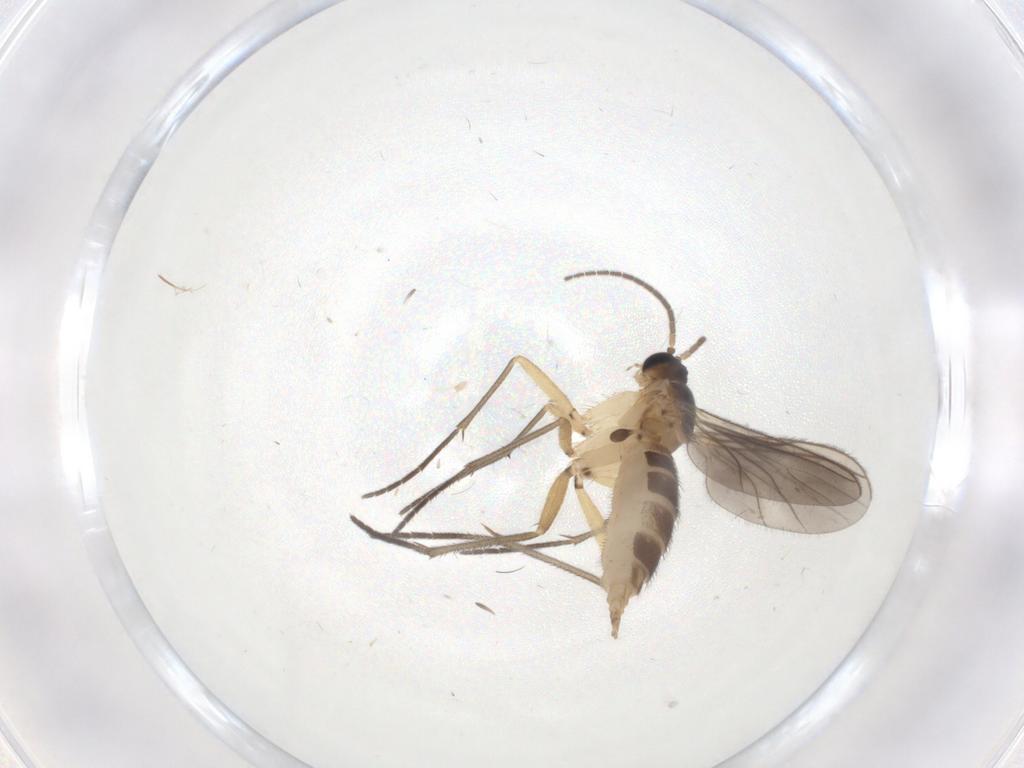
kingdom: Animalia
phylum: Arthropoda
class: Insecta
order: Diptera
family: Sciaridae
